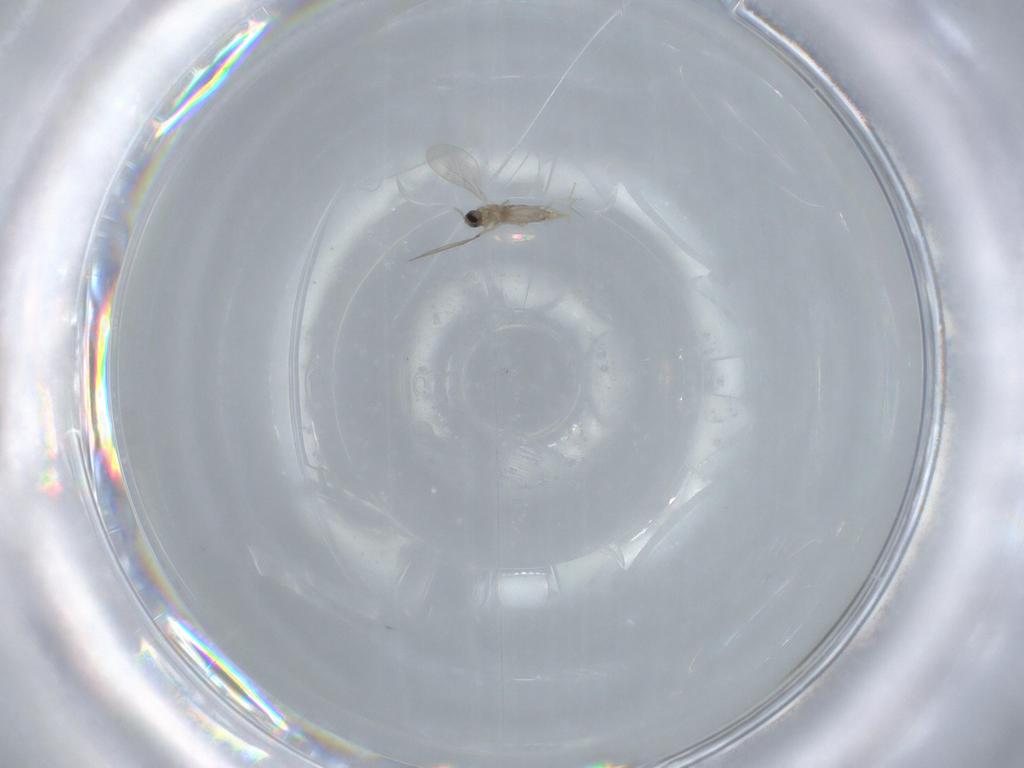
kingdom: Animalia
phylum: Arthropoda
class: Insecta
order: Diptera
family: Cecidomyiidae
